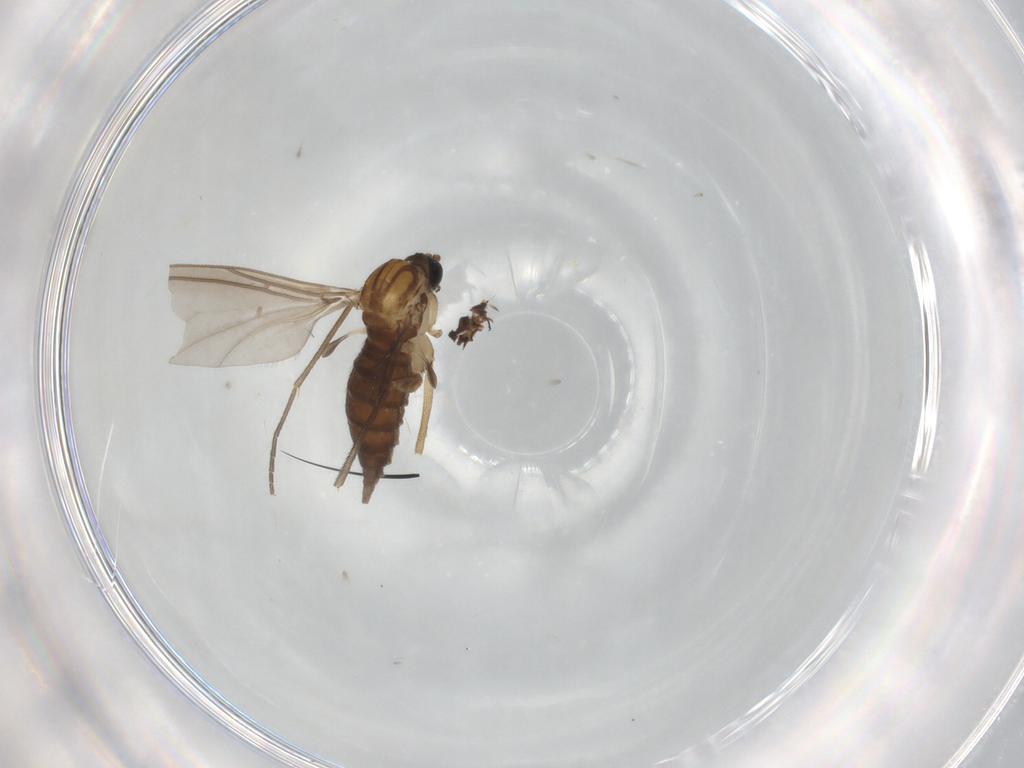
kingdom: Animalia
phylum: Arthropoda
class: Insecta
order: Diptera
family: Sciaridae
